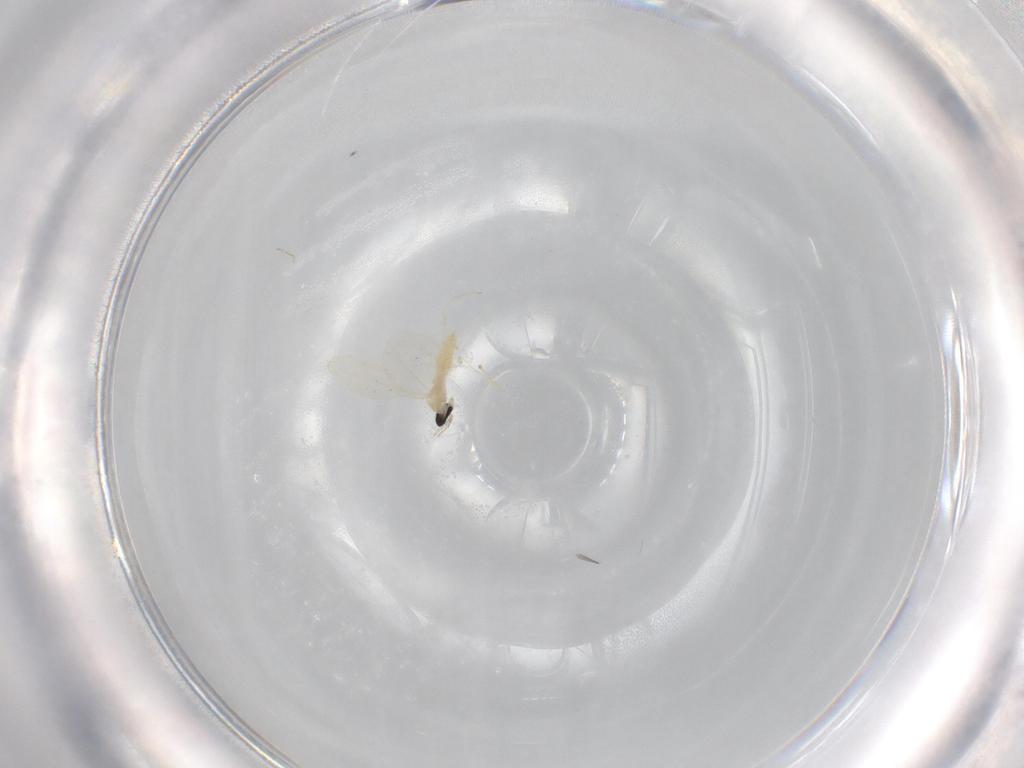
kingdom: Animalia
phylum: Arthropoda
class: Insecta
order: Diptera
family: Cecidomyiidae
